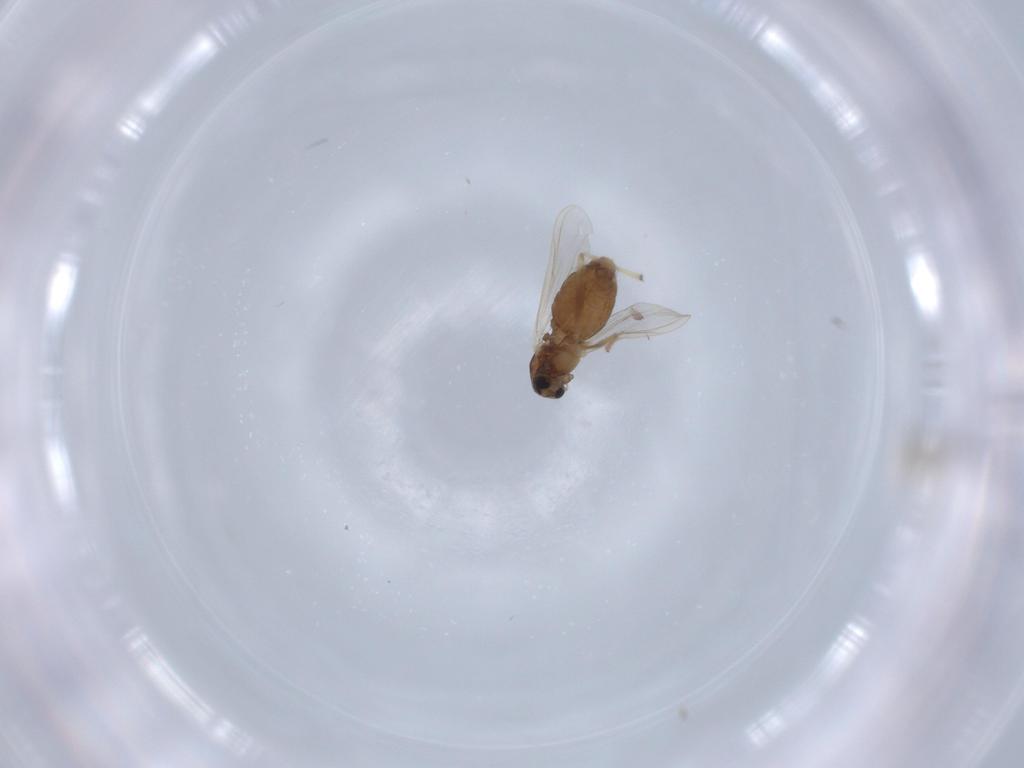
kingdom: Animalia
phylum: Arthropoda
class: Insecta
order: Diptera
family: Chironomidae
